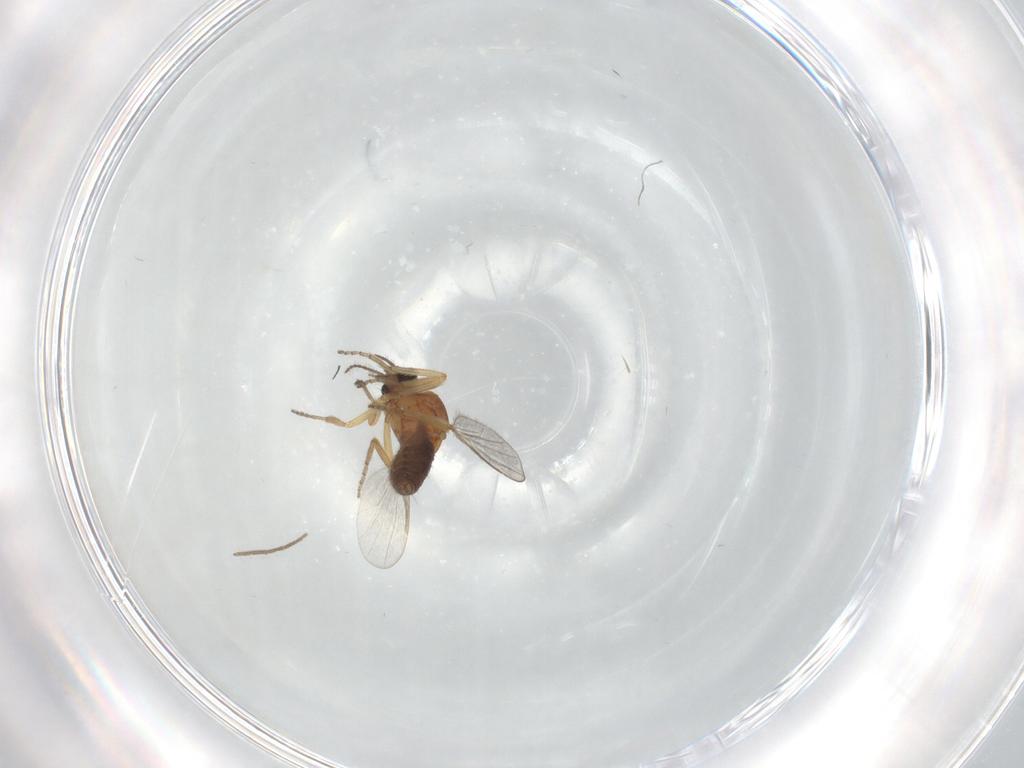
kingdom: Animalia
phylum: Arthropoda
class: Insecta
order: Diptera
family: Ceratopogonidae
